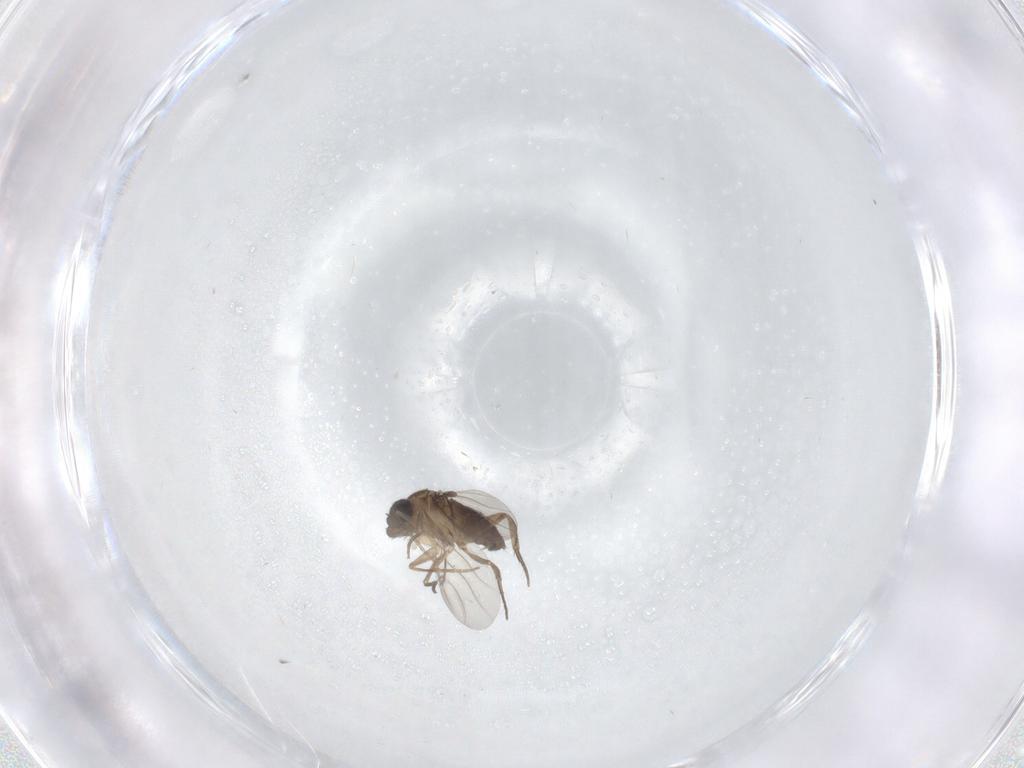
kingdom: Animalia
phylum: Arthropoda
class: Insecta
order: Diptera
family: Phoridae
